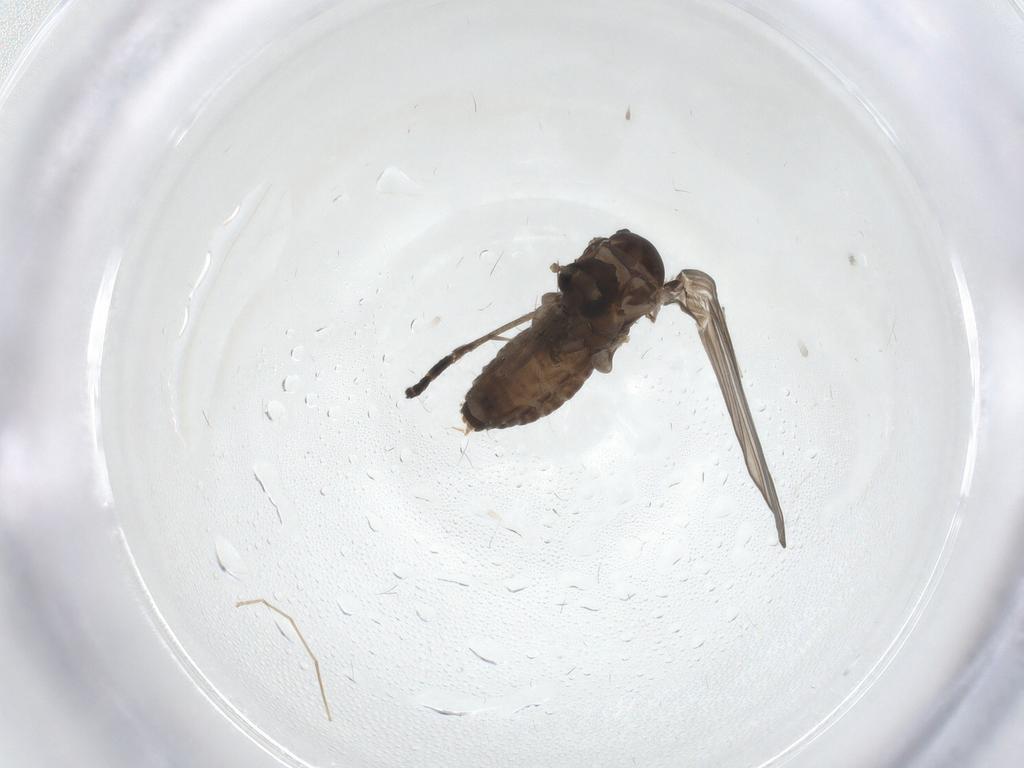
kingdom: Animalia
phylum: Arthropoda
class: Insecta
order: Diptera
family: Psychodidae
